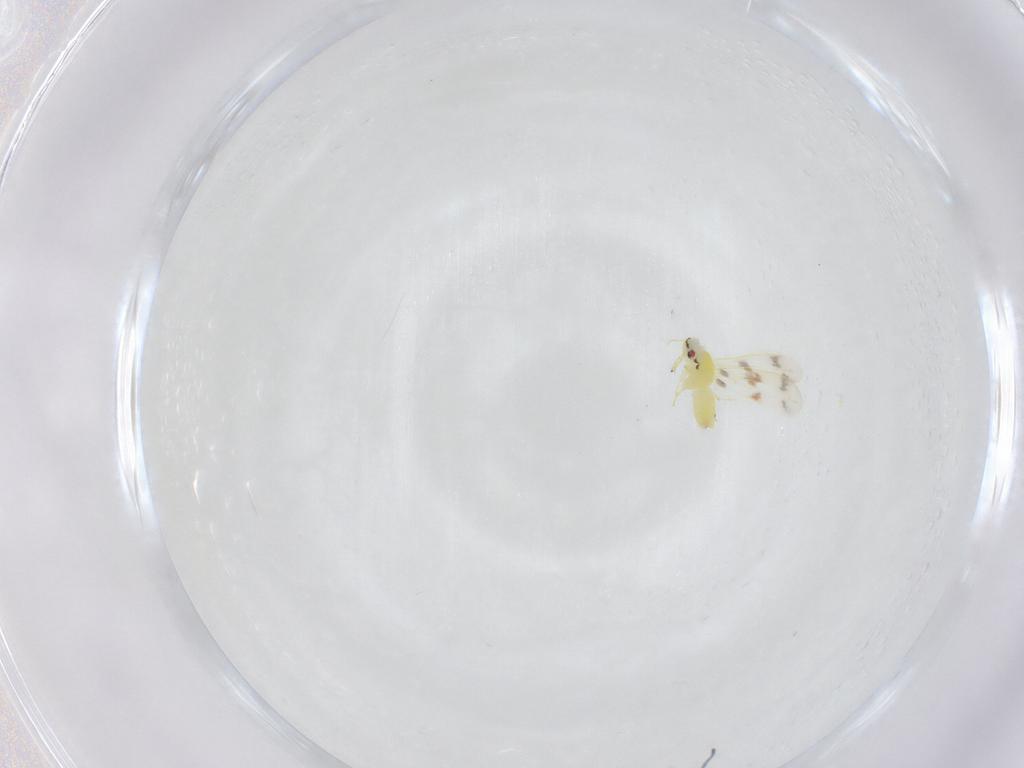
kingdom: Animalia
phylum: Arthropoda
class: Insecta
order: Hemiptera
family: Aleyrodidae
